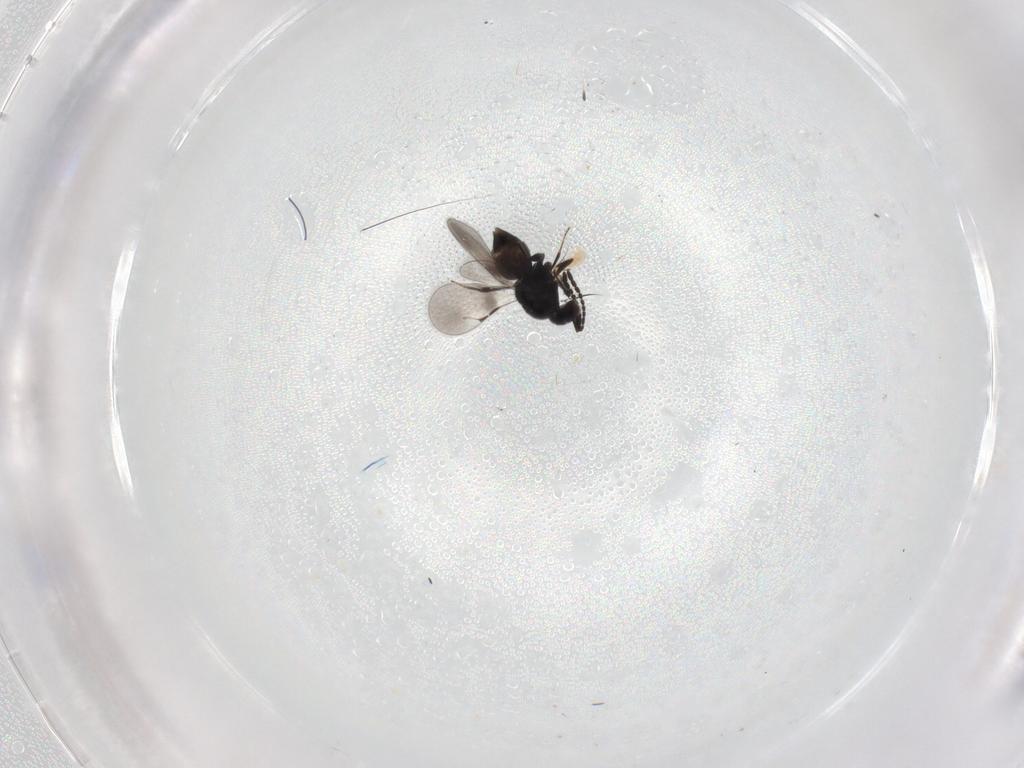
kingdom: Animalia
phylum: Arthropoda
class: Insecta
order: Hymenoptera
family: Ceraphronidae
